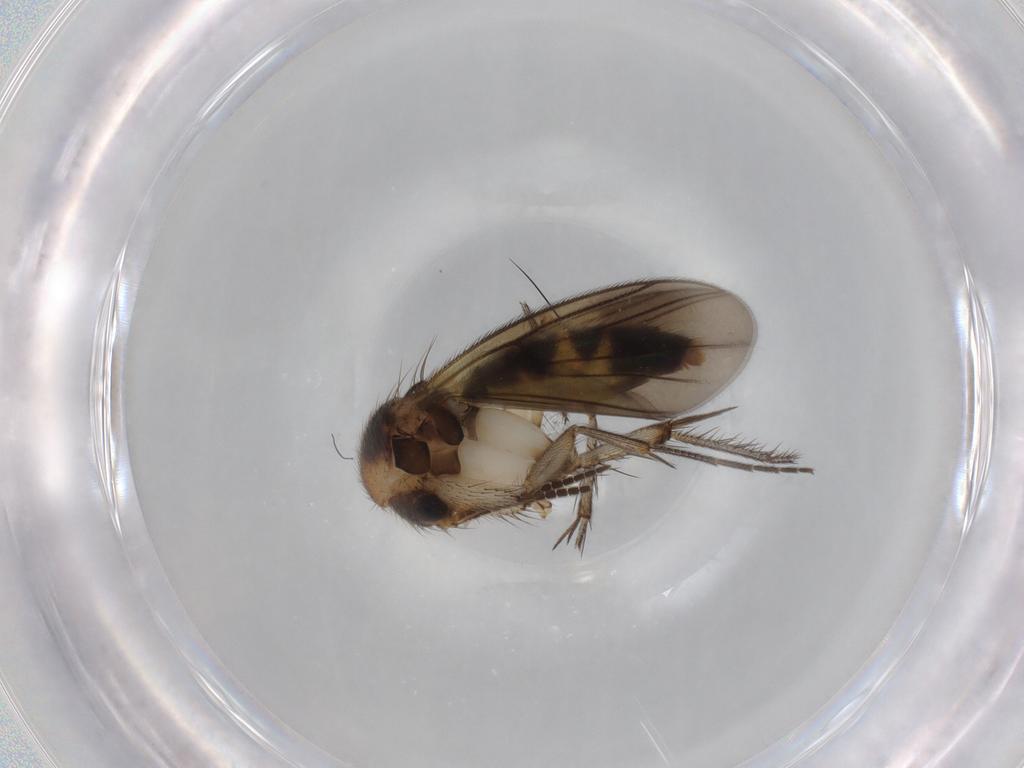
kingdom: Animalia
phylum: Arthropoda
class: Insecta
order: Diptera
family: Mycetophilidae
